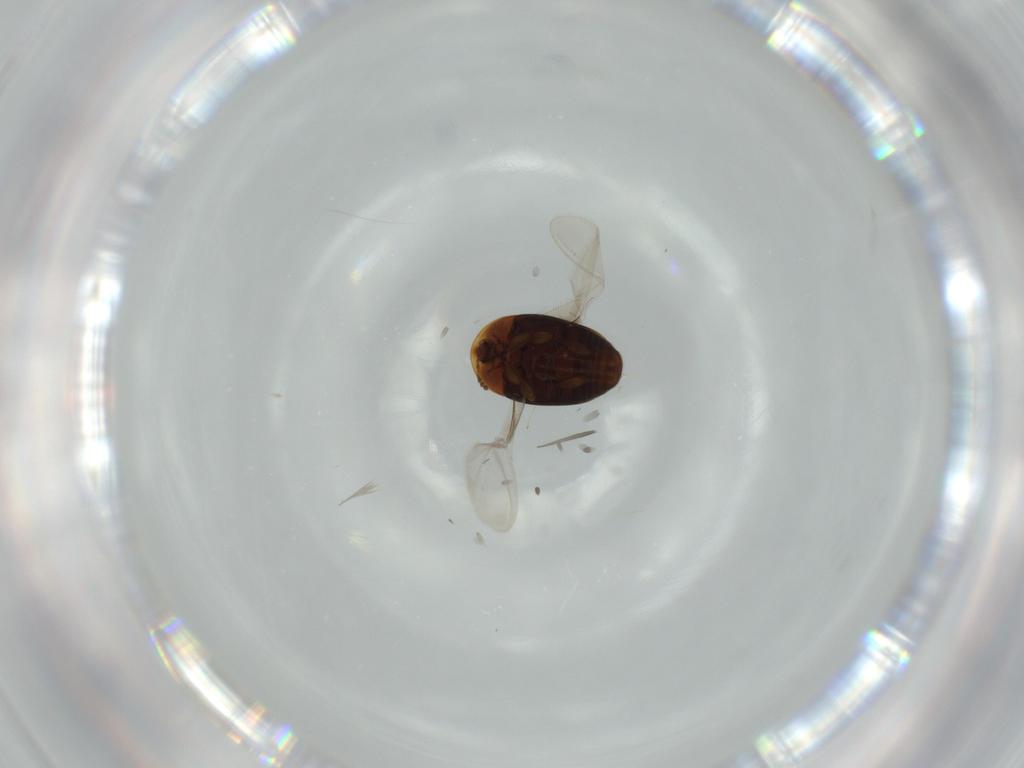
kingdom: Animalia
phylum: Arthropoda
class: Insecta
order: Coleoptera
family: Corylophidae
